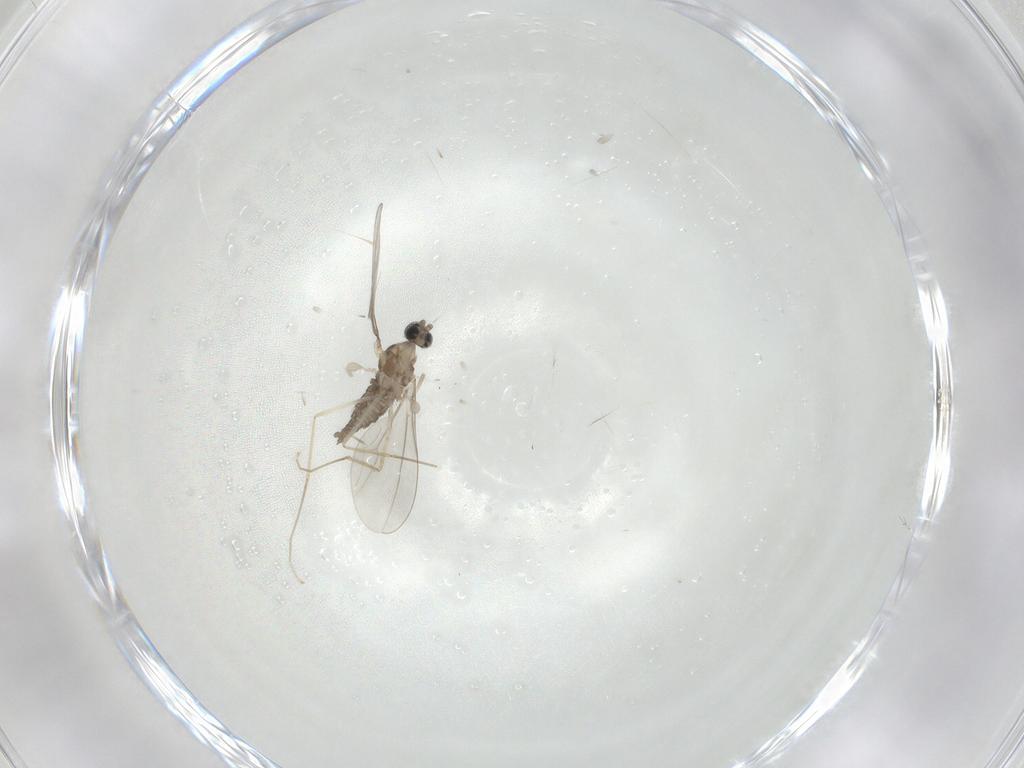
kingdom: Animalia
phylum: Arthropoda
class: Insecta
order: Diptera
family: Cecidomyiidae
